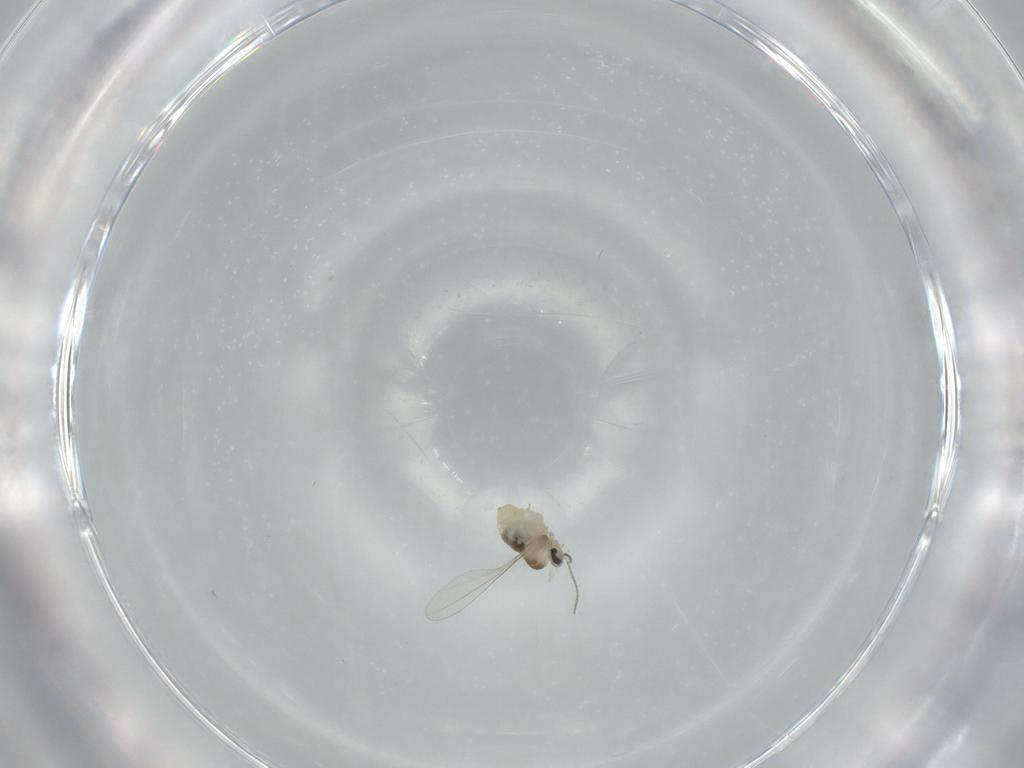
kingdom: Animalia
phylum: Arthropoda
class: Insecta
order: Diptera
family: Cecidomyiidae
